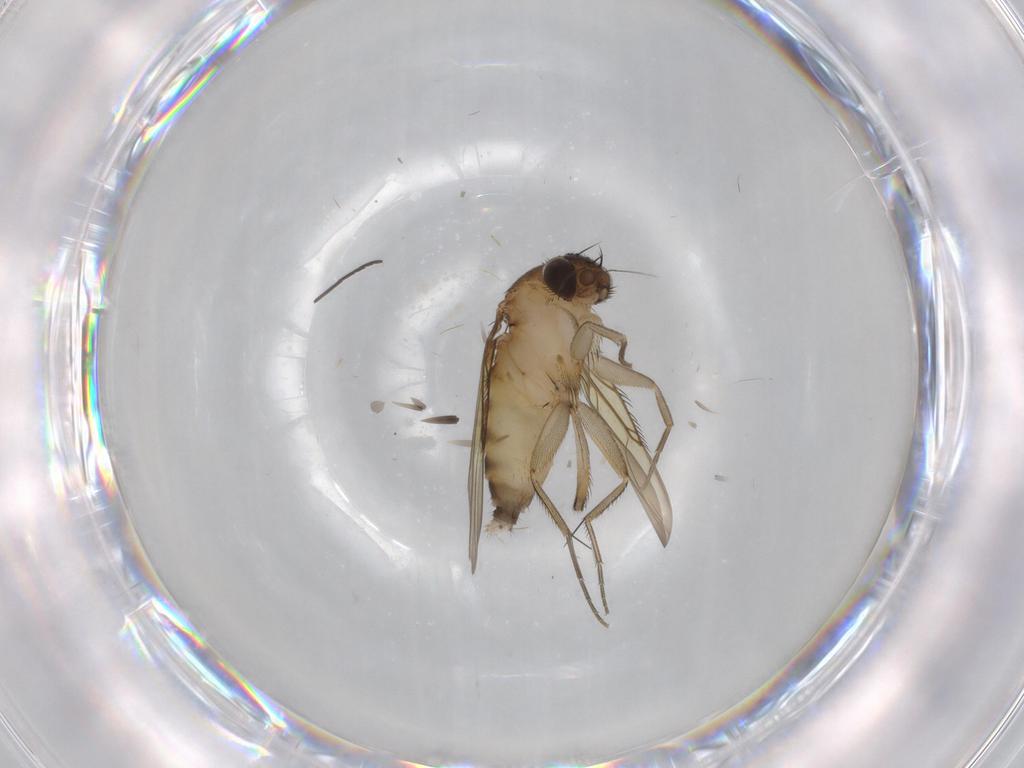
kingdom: Animalia
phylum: Arthropoda
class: Insecta
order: Diptera
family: Phoridae
